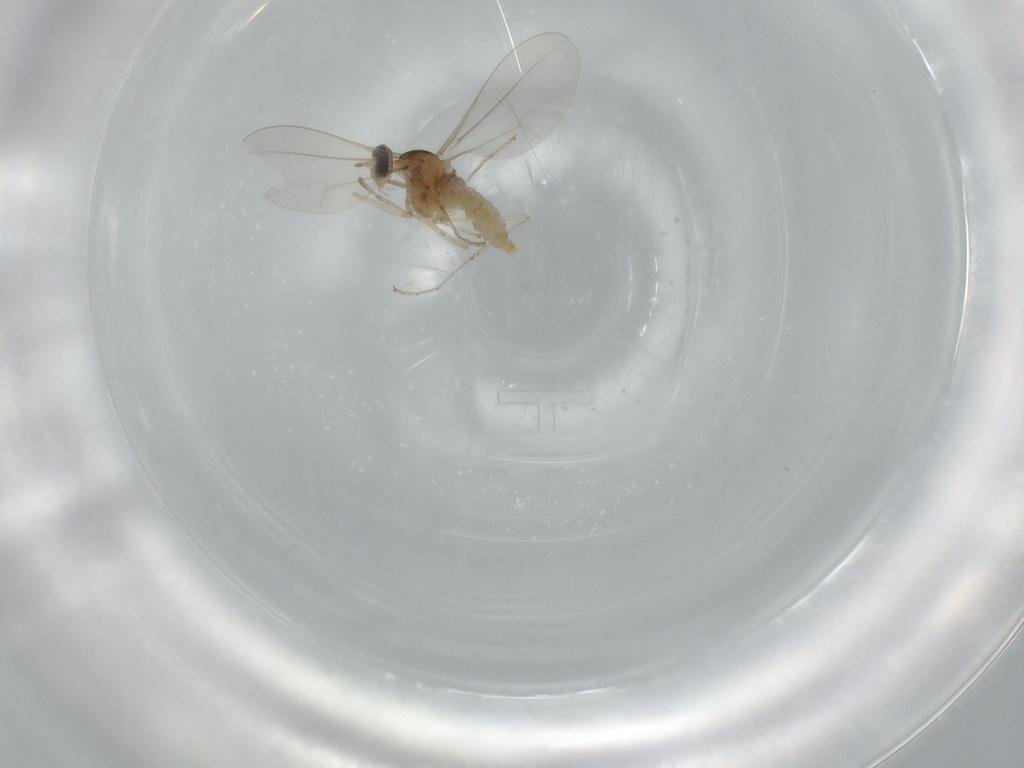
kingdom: Animalia
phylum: Arthropoda
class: Insecta
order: Diptera
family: Cecidomyiidae
